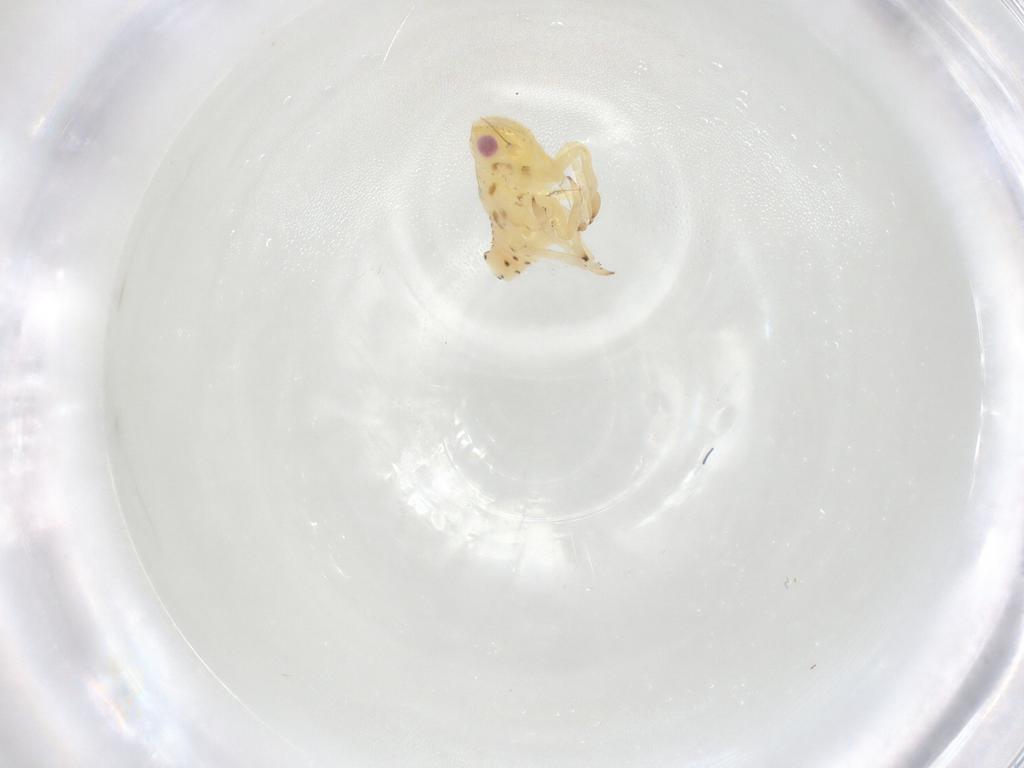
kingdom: Animalia
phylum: Arthropoda
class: Insecta
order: Hemiptera
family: Tropiduchidae
